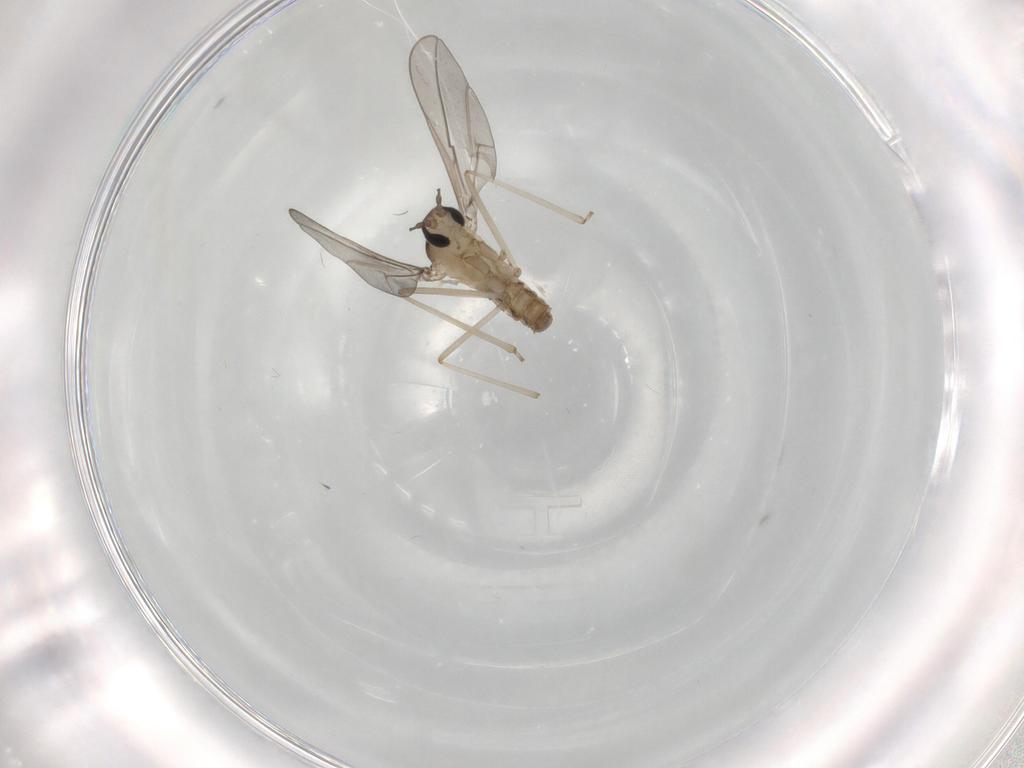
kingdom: Animalia
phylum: Arthropoda
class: Insecta
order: Diptera
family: Cecidomyiidae
